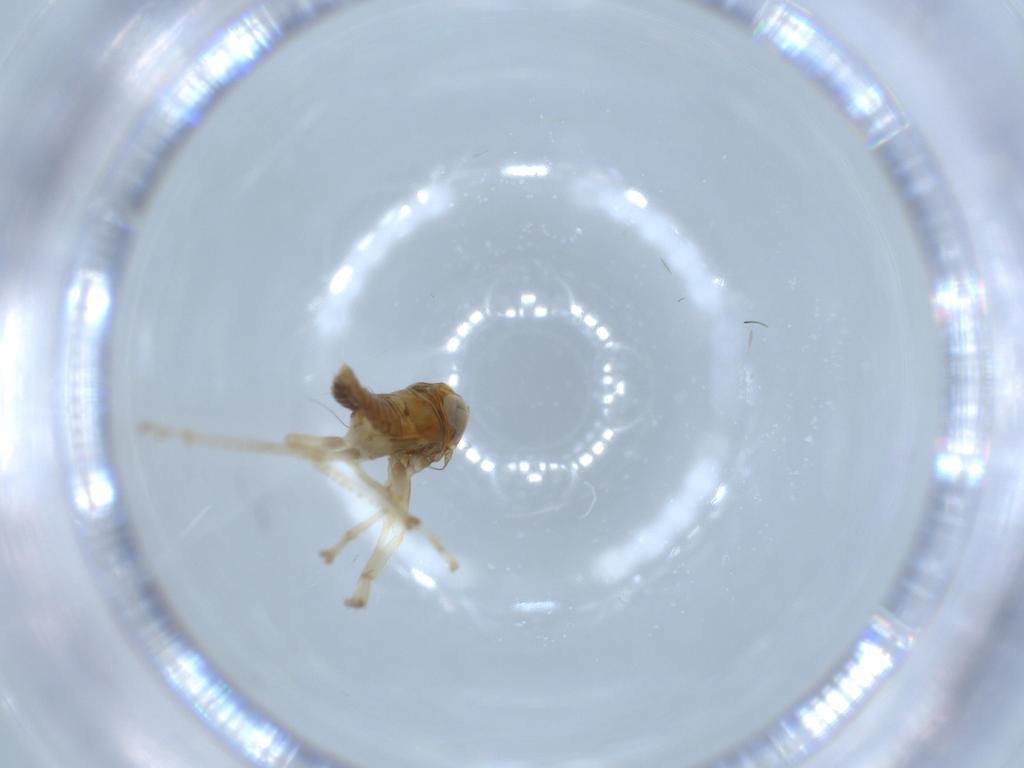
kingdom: Animalia
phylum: Arthropoda
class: Insecta
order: Hemiptera
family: Cicadellidae
